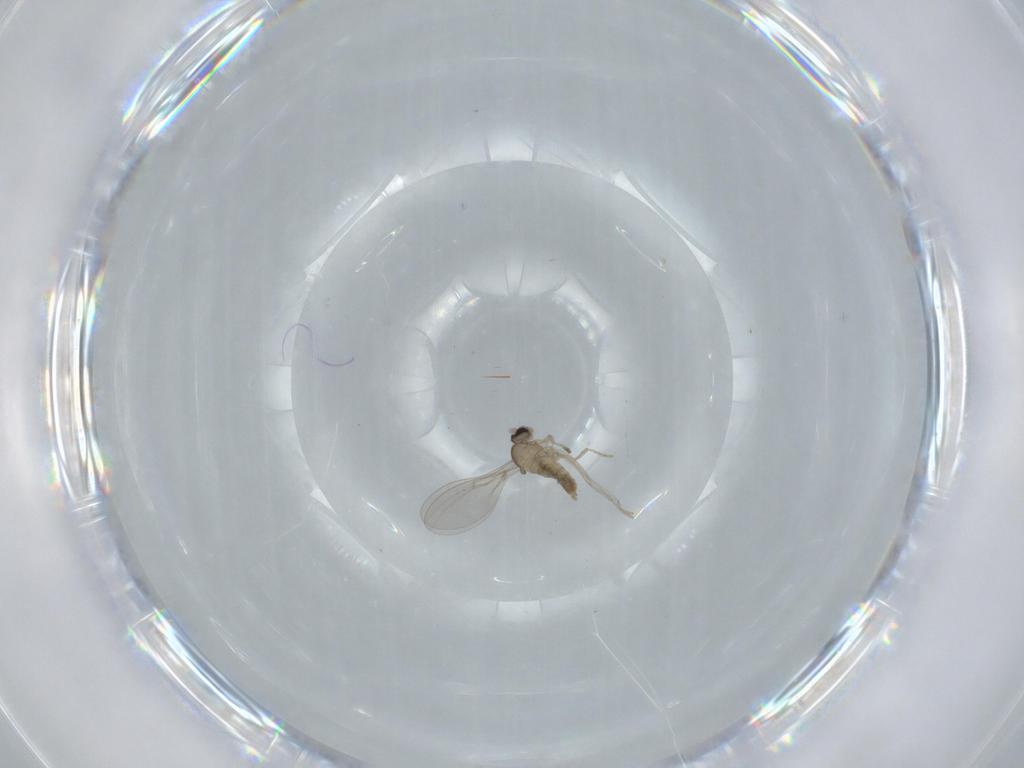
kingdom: Animalia
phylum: Arthropoda
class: Insecta
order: Diptera
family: Cecidomyiidae
